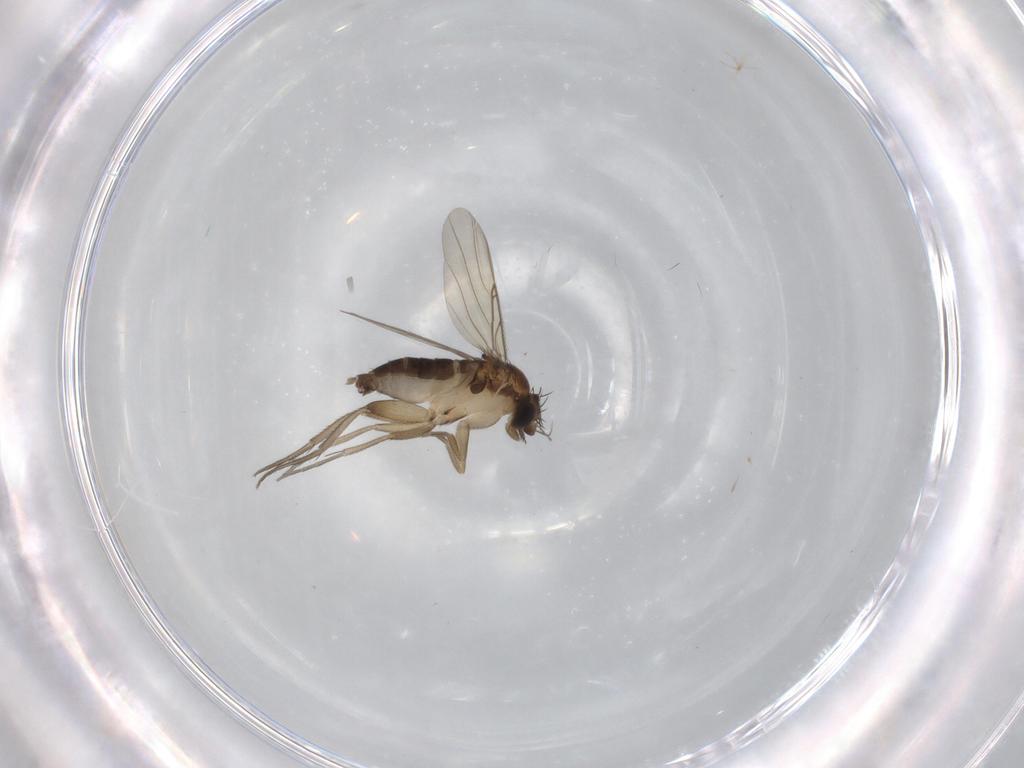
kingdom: Animalia
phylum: Arthropoda
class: Insecta
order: Diptera
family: Phoridae
